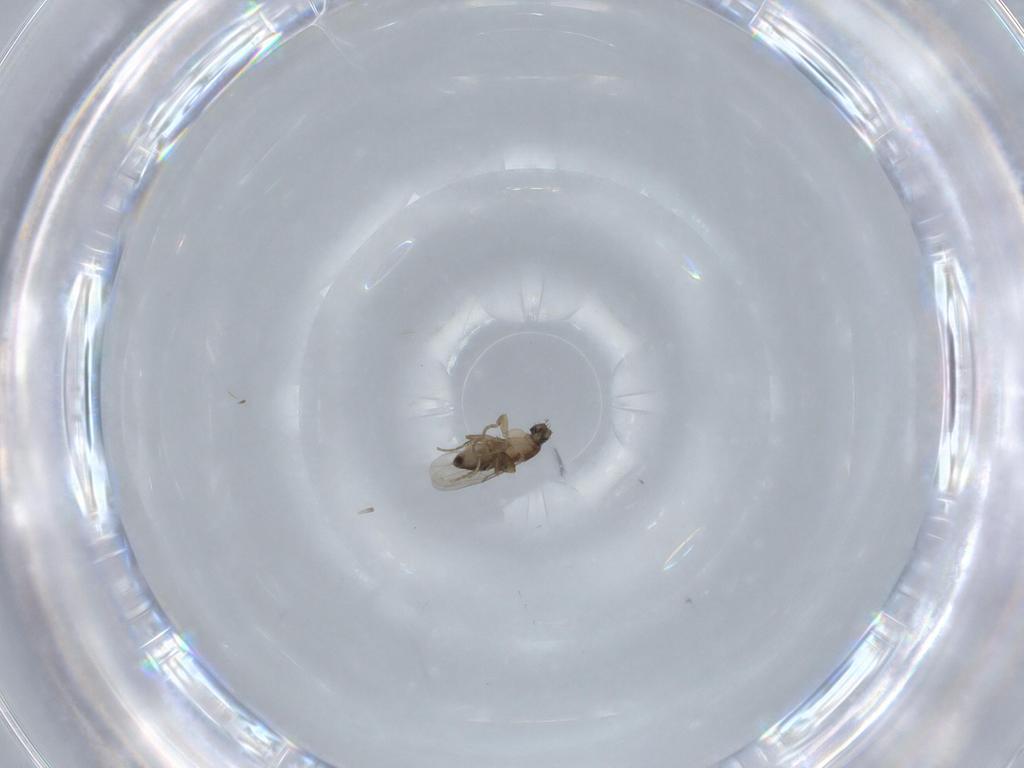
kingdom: Animalia
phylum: Arthropoda
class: Insecta
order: Diptera
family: Phoridae
